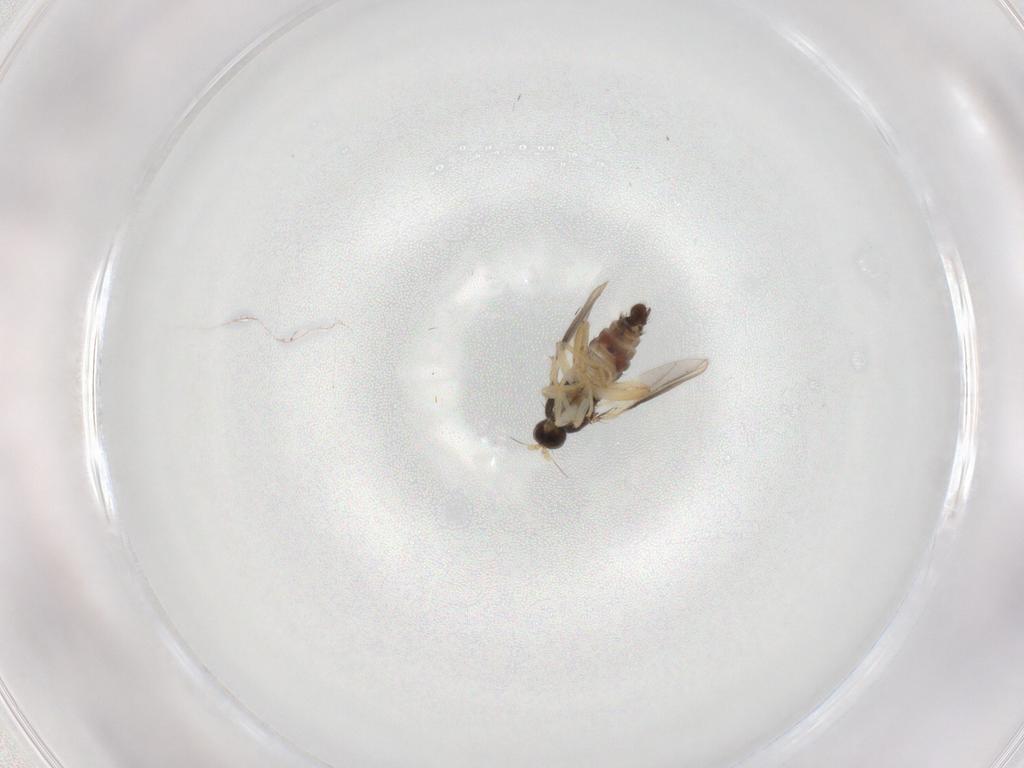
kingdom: Animalia
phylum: Arthropoda
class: Insecta
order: Diptera
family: Hybotidae
